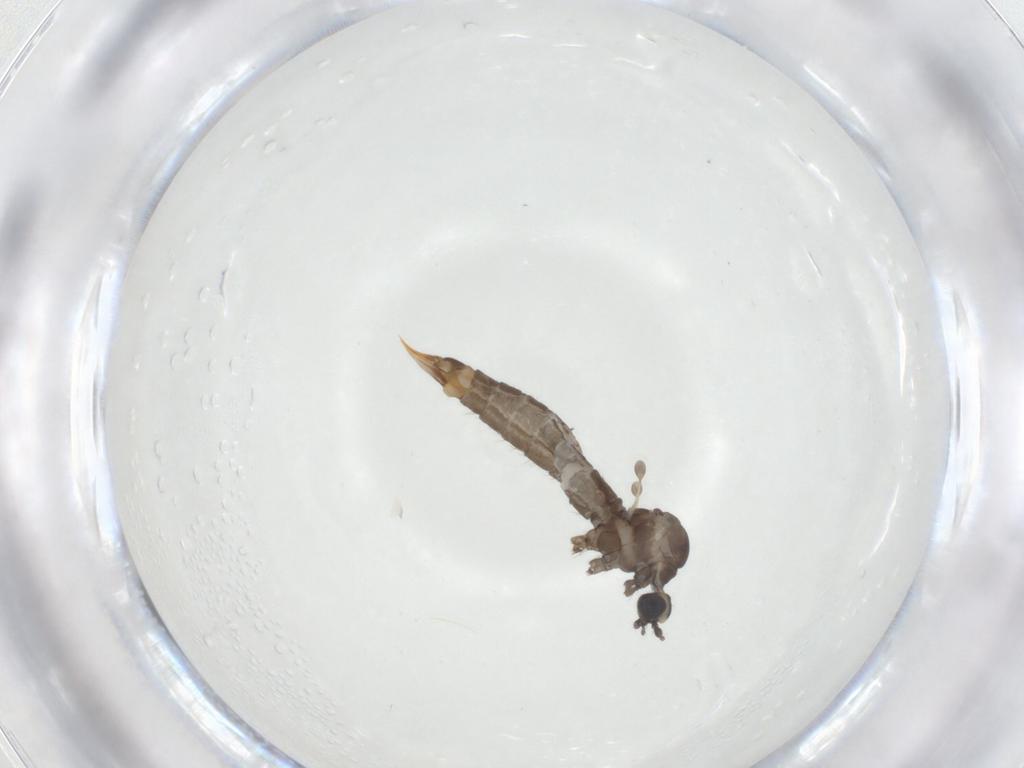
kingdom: Animalia
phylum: Arthropoda
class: Insecta
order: Diptera
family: Limoniidae
